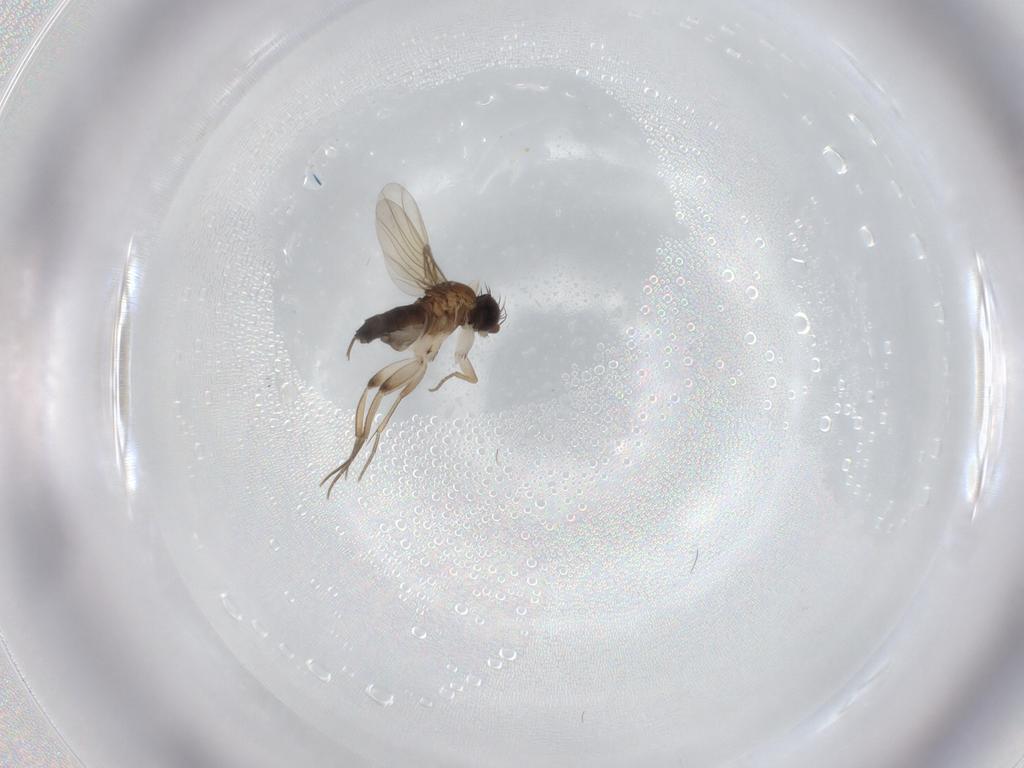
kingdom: Animalia
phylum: Arthropoda
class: Insecta
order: Diptera
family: Phoridae
